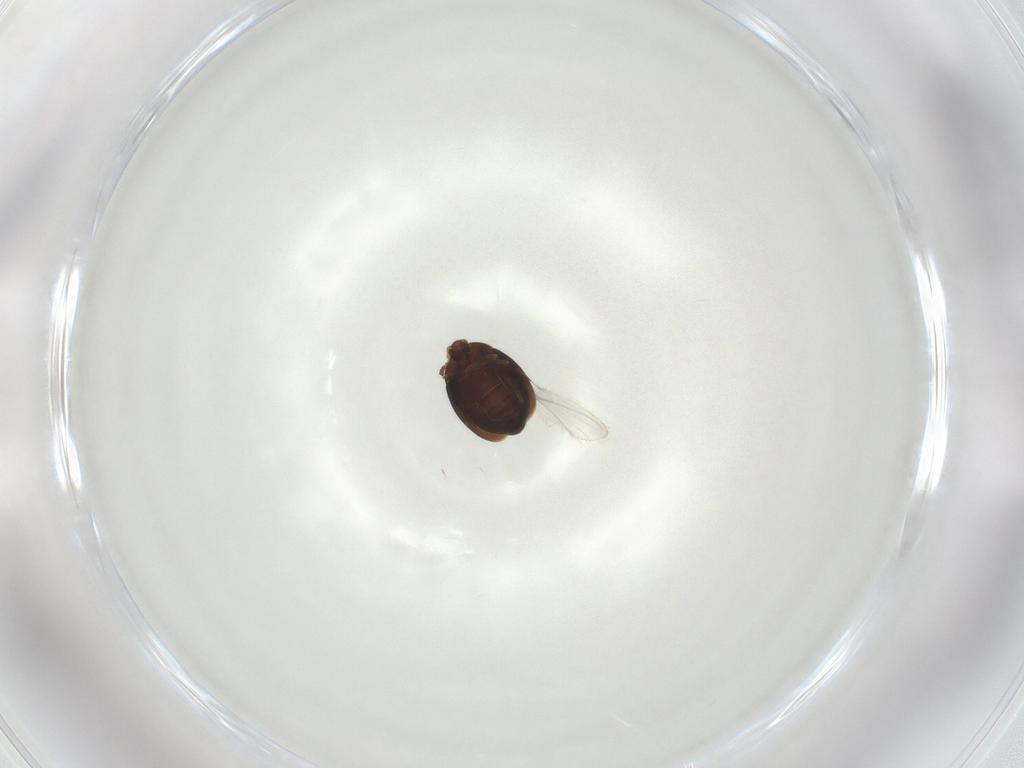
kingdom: Animalia
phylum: Arthropoda
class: Insecta
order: Coleoptera
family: Corylophidae
